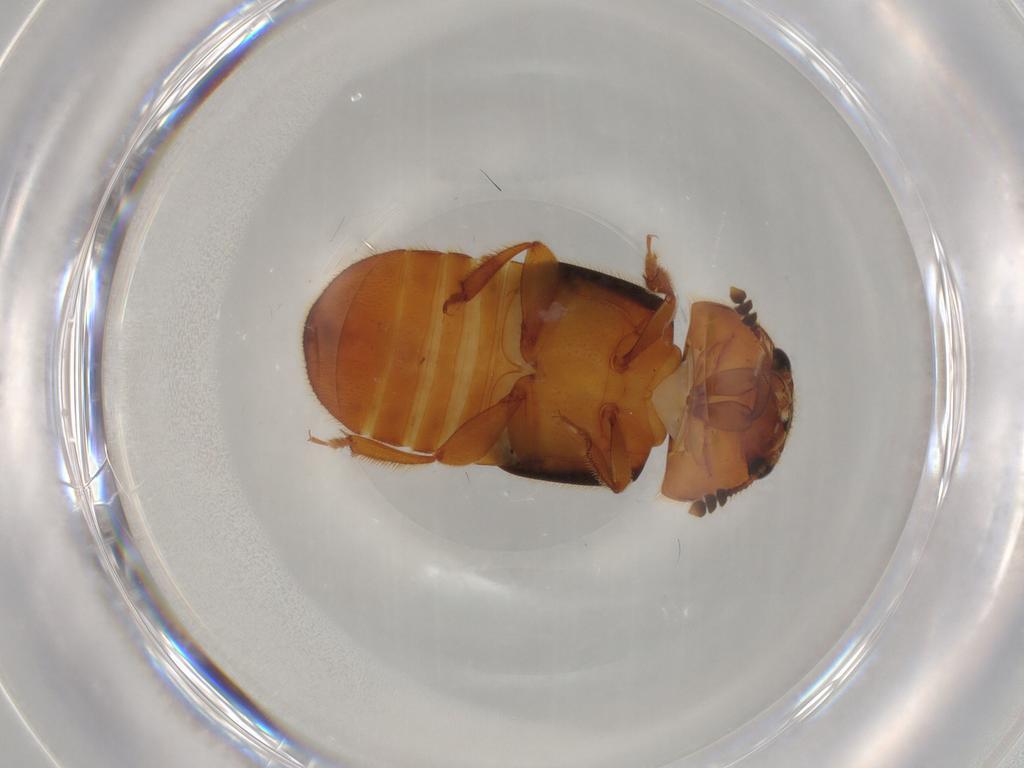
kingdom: Animalia
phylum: Arthropoda
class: Insecta
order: Coleoptera
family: Nitidulidae
